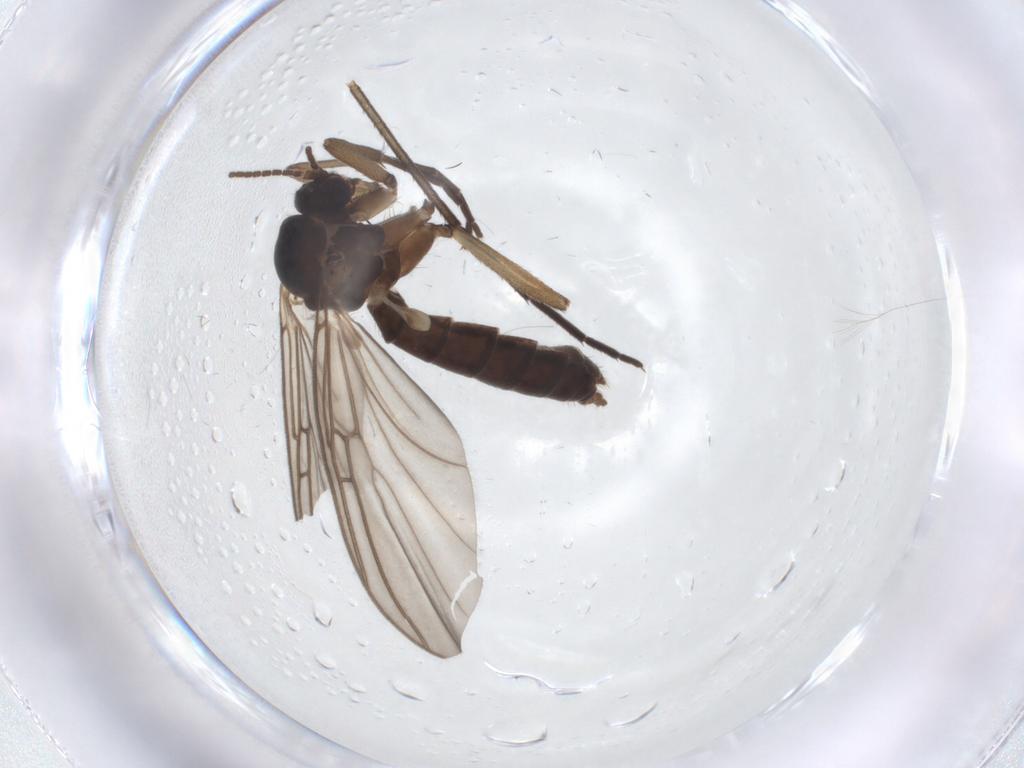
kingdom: Animalia
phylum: Arthropoda
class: Insecta
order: Diptera
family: Mycetophilidae
